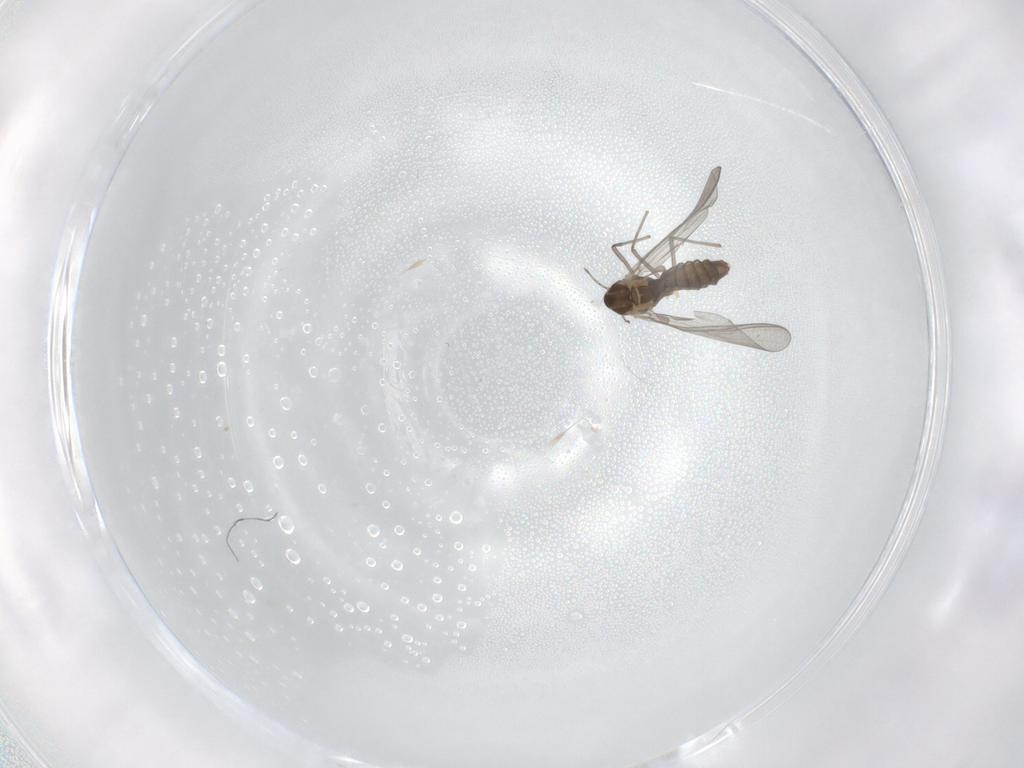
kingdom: Animalia
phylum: Arthropoda
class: Insecta
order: Diptera
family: Chironomidae
